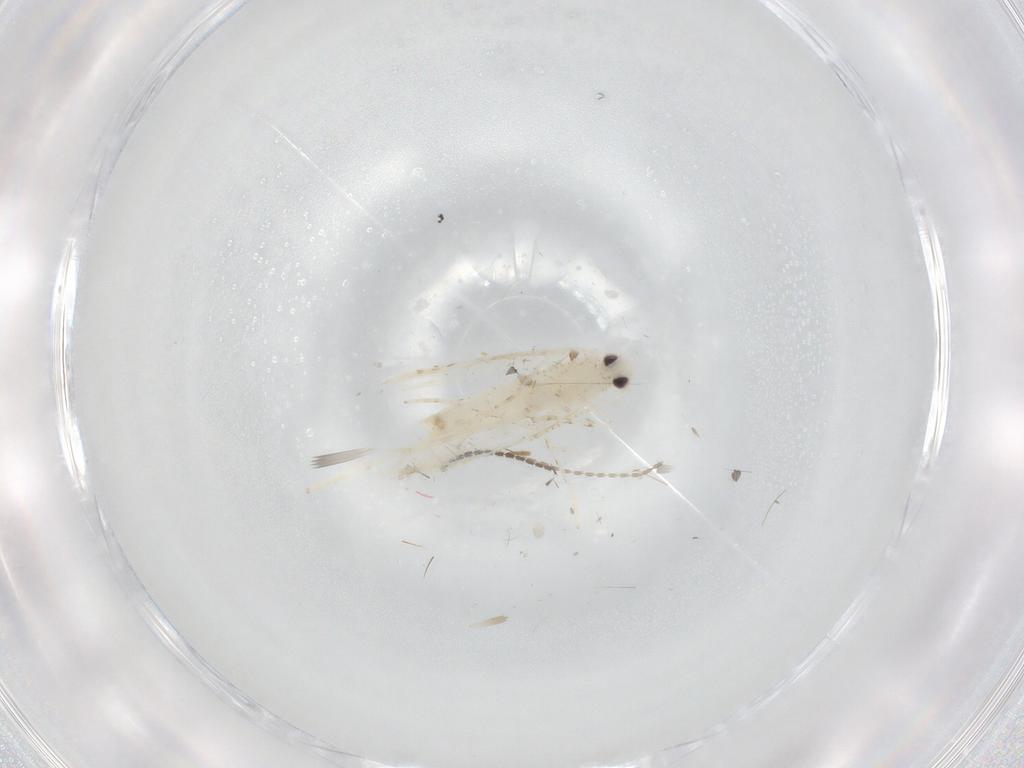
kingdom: Animalia
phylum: Arthropoda
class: Insecta
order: Lepidoptera
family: Gracillariidae
